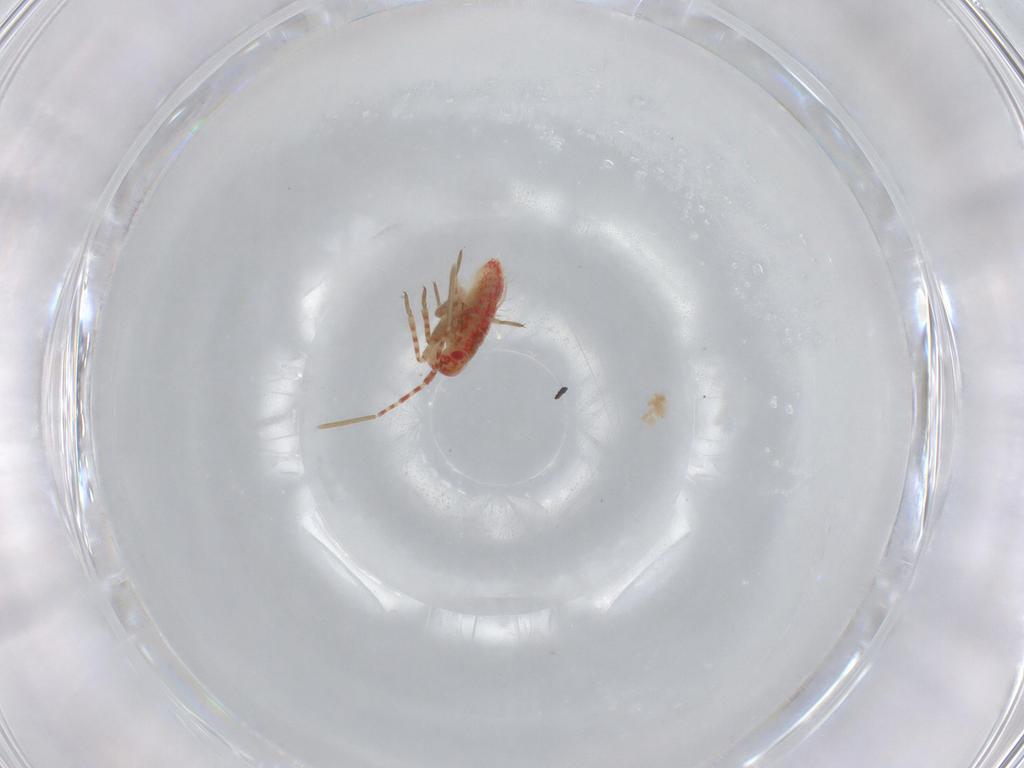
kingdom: Animalia
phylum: Arthropoda
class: Insecta
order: Hemiptera
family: Miridae
